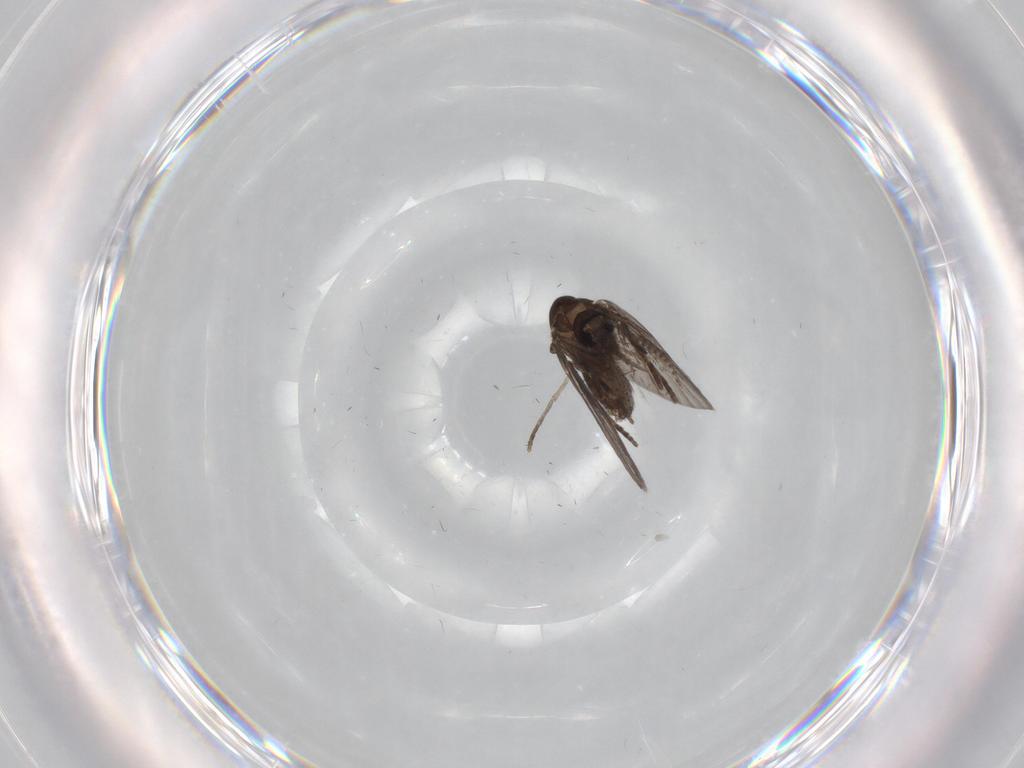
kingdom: Animalia
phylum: Arthropoda
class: Insecta
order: Diptera
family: Psychodidae
